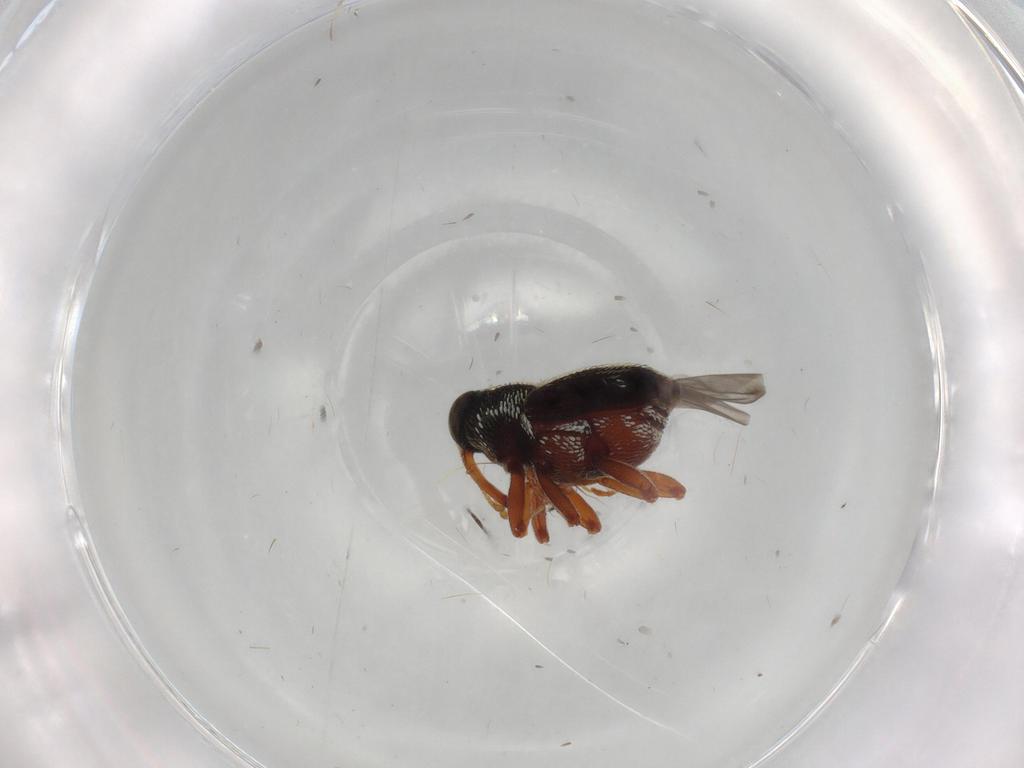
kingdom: Animalia
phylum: Arthropoda
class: Insecta
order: Coleoptera
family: Curculionidae
